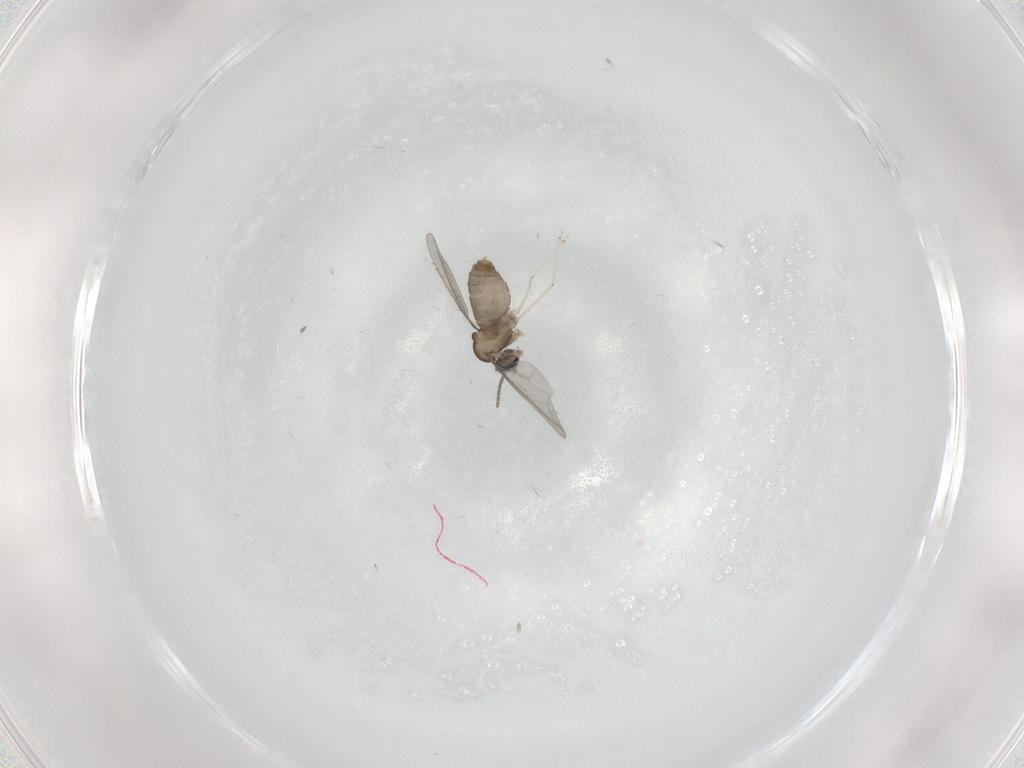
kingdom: Animalia
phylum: Arthropoda
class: Insecta
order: Diptera
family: Cecidomyiidae
